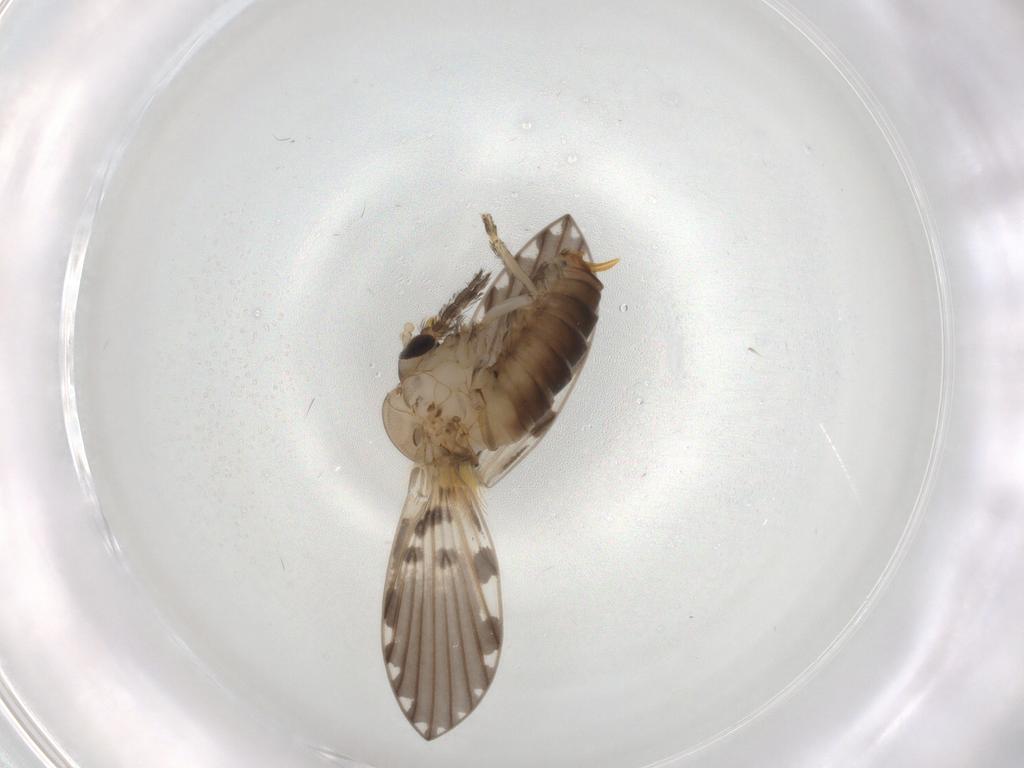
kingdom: Animalia
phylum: Arthropoda
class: Insecta
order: Diptera
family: Psychodidae
